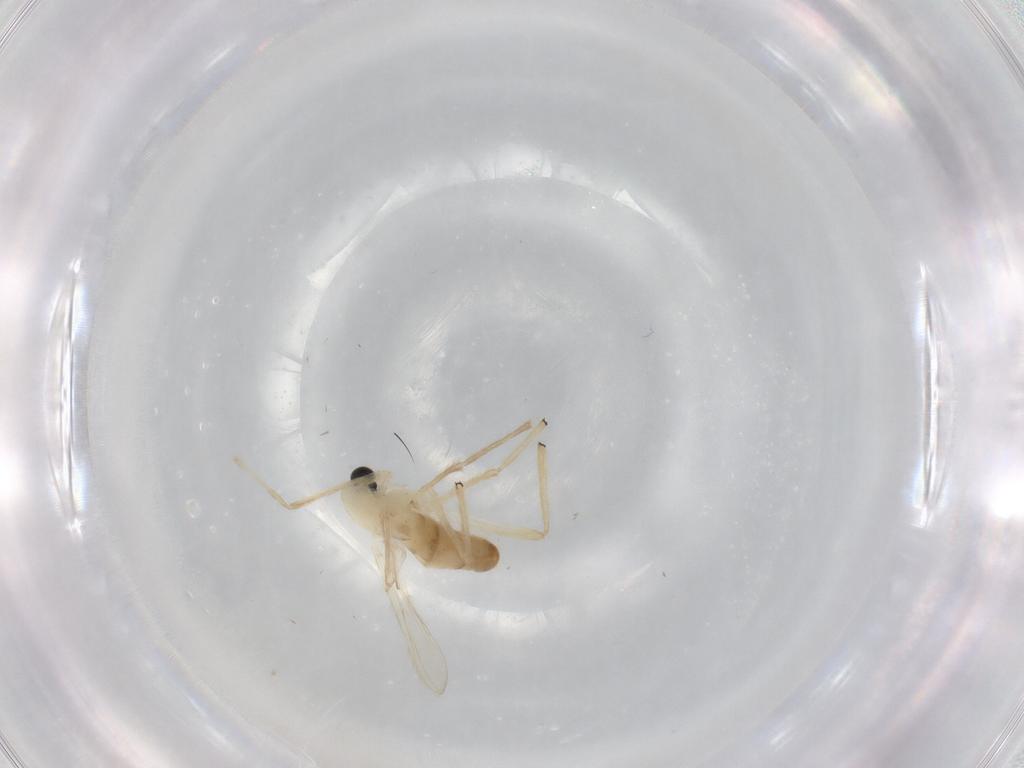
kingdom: Animalia
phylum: Arthropoda
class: Insecta
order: Diptera
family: Chironomidae
